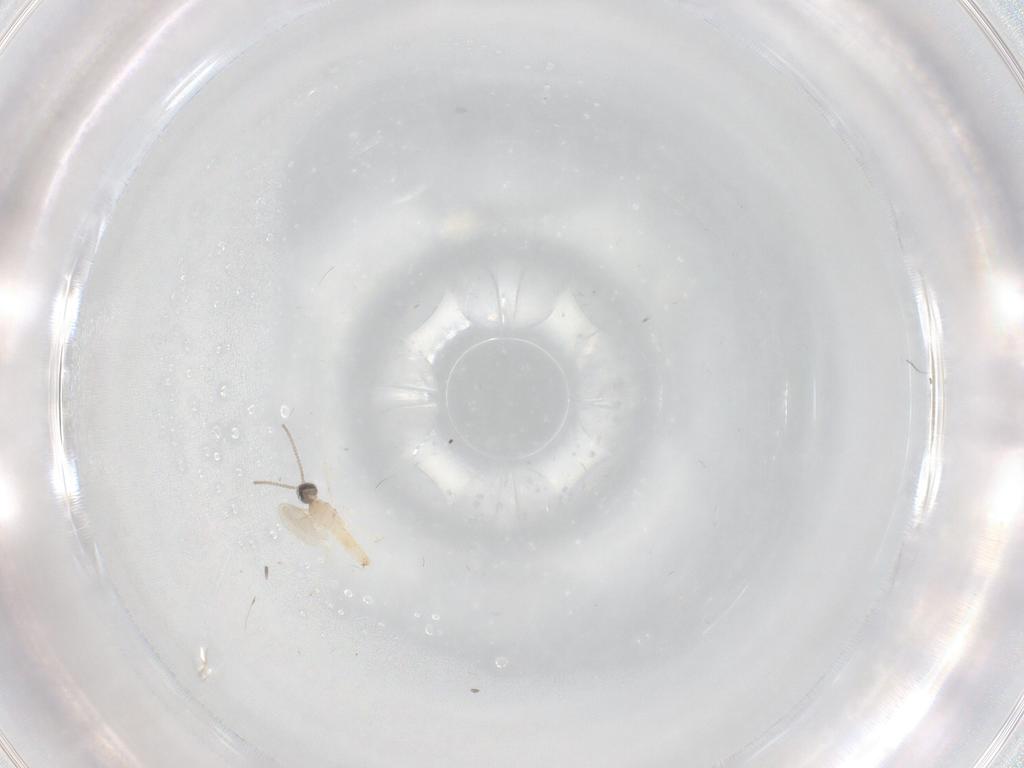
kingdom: Animalia
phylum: Arthropoda
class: Insecta
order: Diptera
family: Cecidomyiidae
